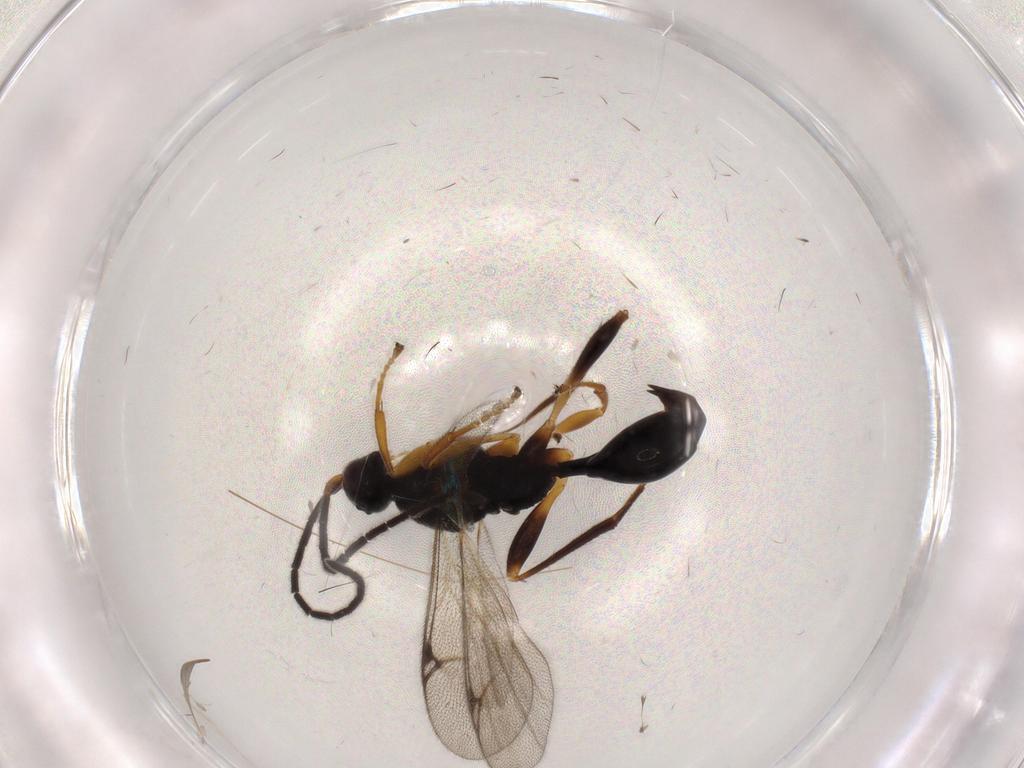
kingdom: Animalia
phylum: Arthropoda
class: Insecta
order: Hymenoptera
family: Proctotrupidae
